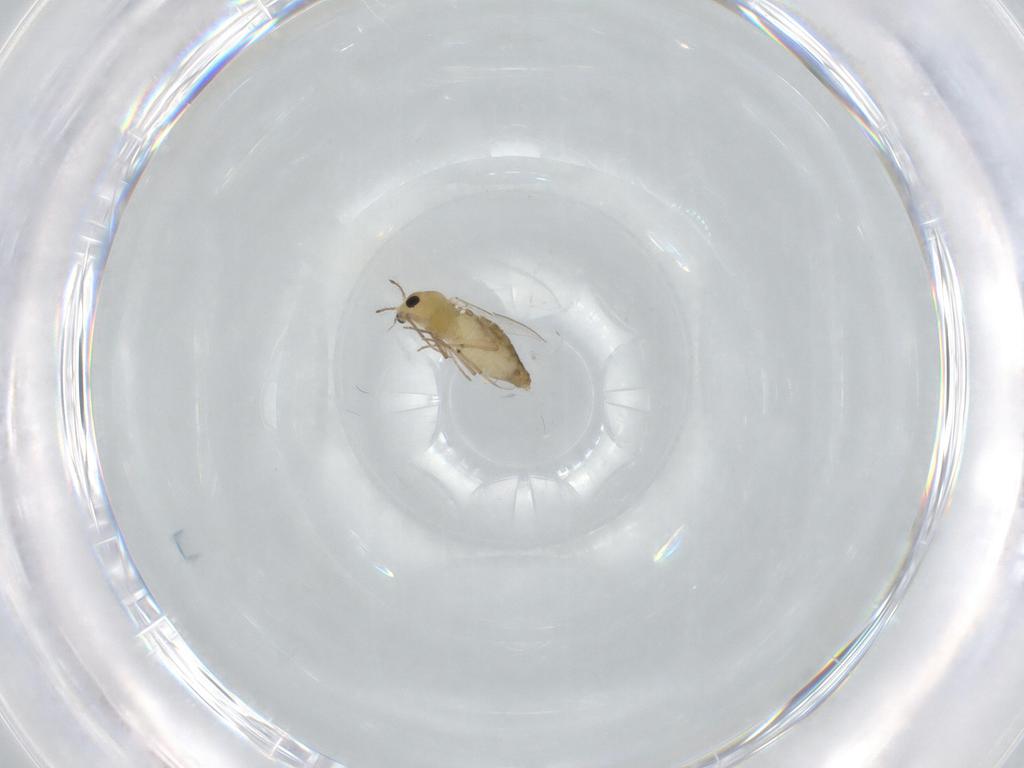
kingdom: Animalia
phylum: Arthropoda
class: Insecta
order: Diptera
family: Chironomidae
